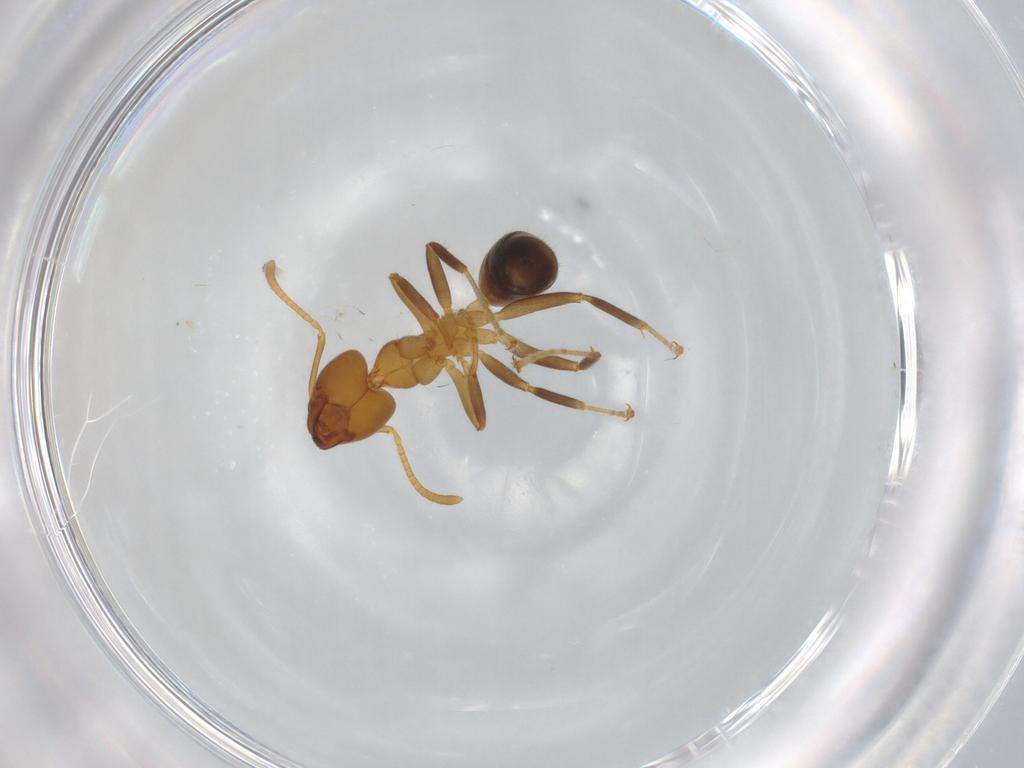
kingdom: Animalia
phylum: Arthropoda
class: Insecta
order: Hymenoptera
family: Formicidae
